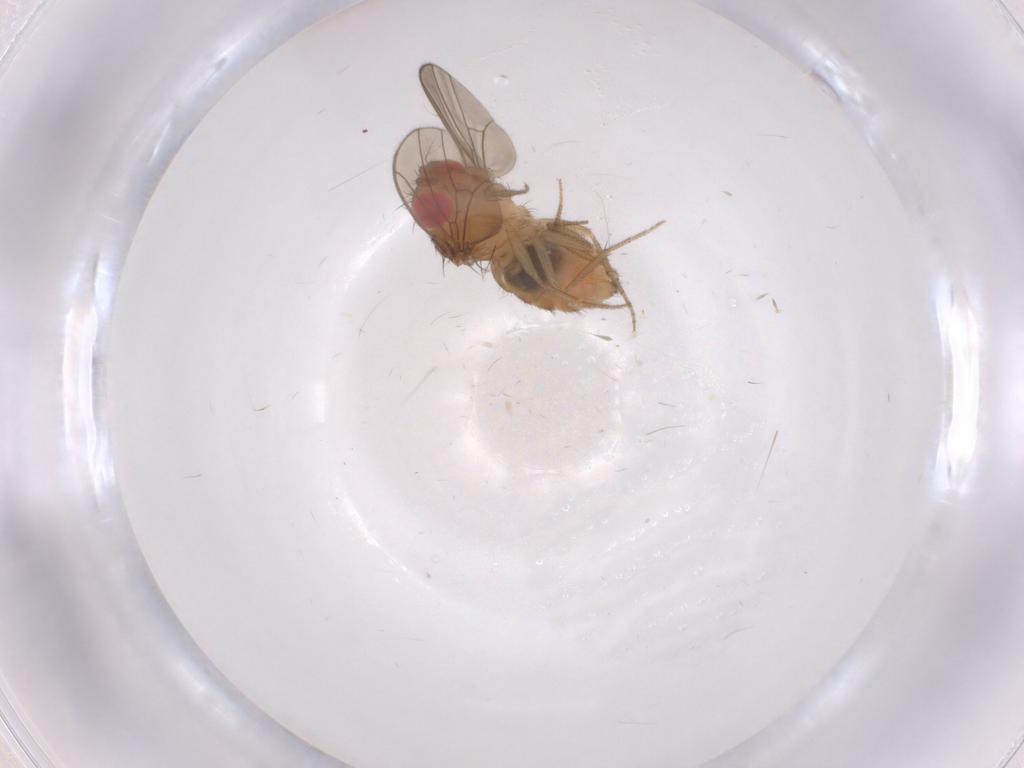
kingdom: Animalia
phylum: Arthropoda
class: Insecta
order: Diptera
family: Drosophilidae
